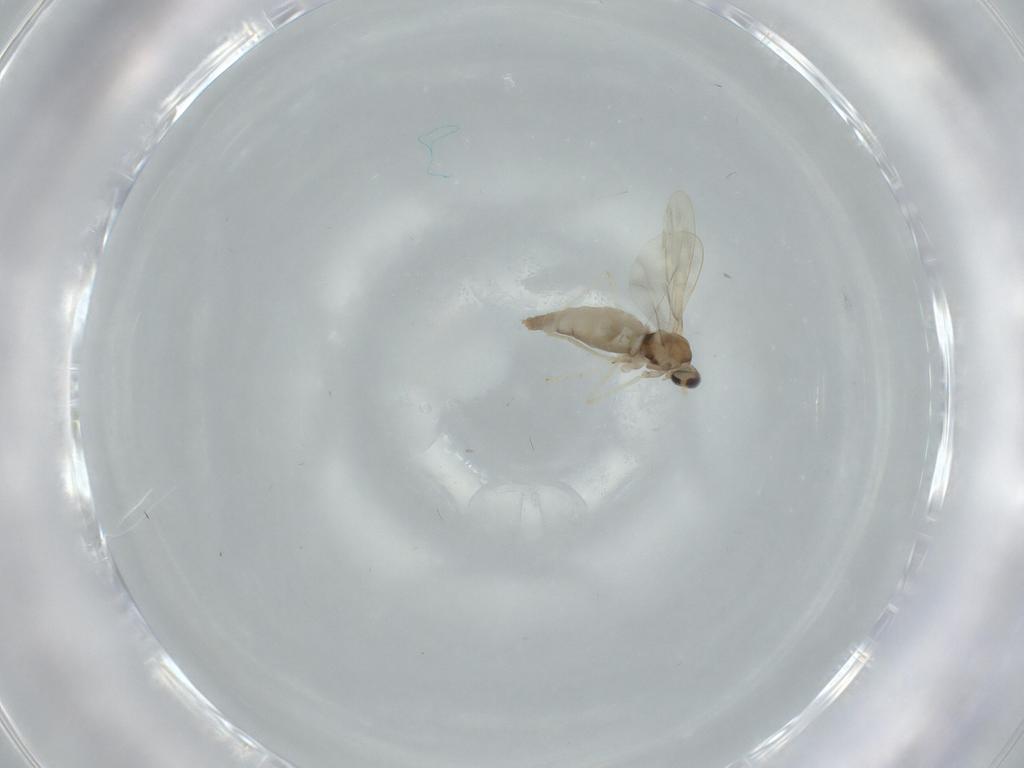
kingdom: Animalia
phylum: Arthropoda
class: Insecta
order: Diptera
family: Cecidomyiidae
